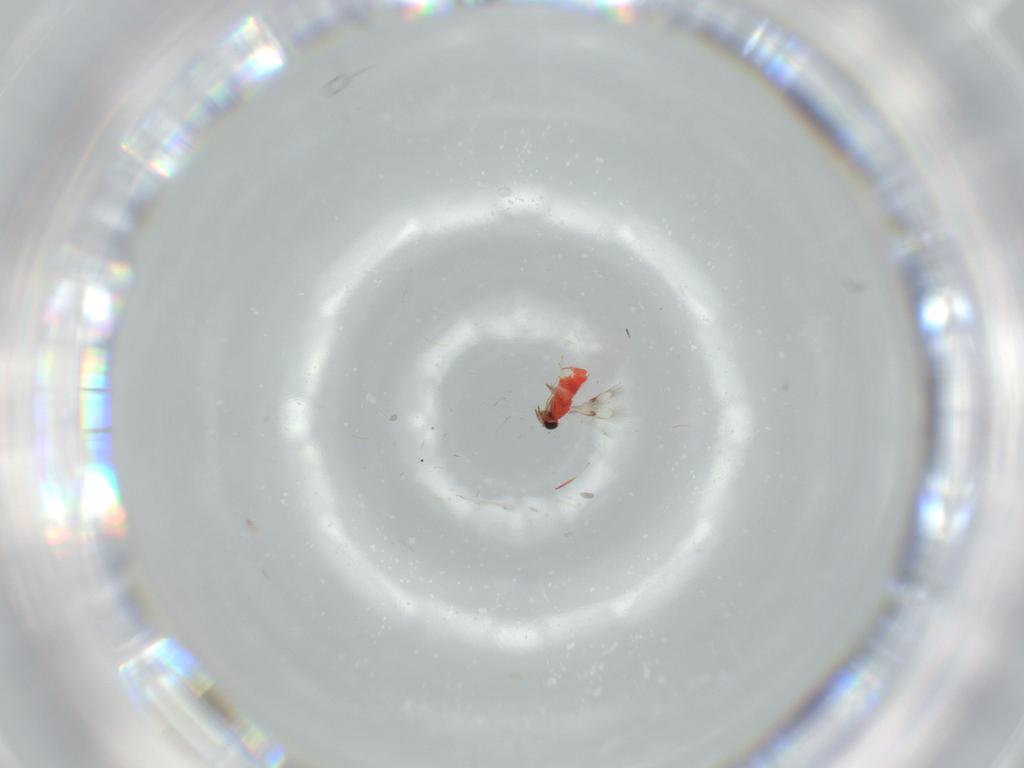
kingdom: Animalia
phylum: Arthropoda
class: Insecta
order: Hymenoptera
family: Trichogrammatidae
